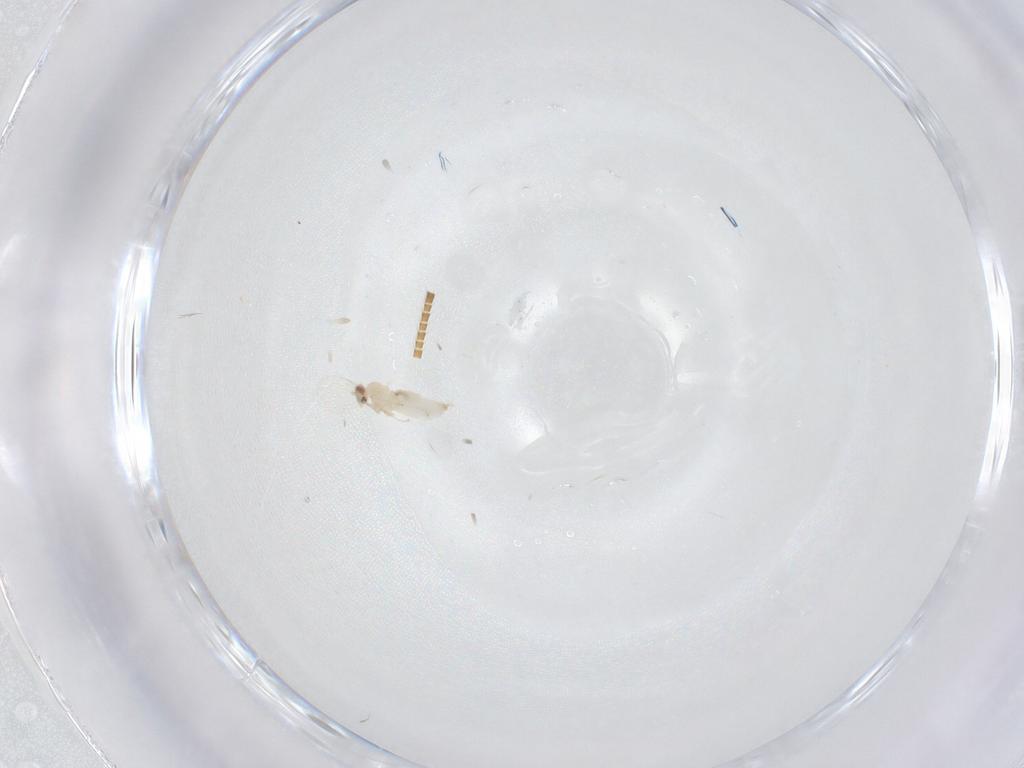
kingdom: Animalia
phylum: Arthropoda
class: Insecta
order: Diptera
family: Cecidomyiidae
